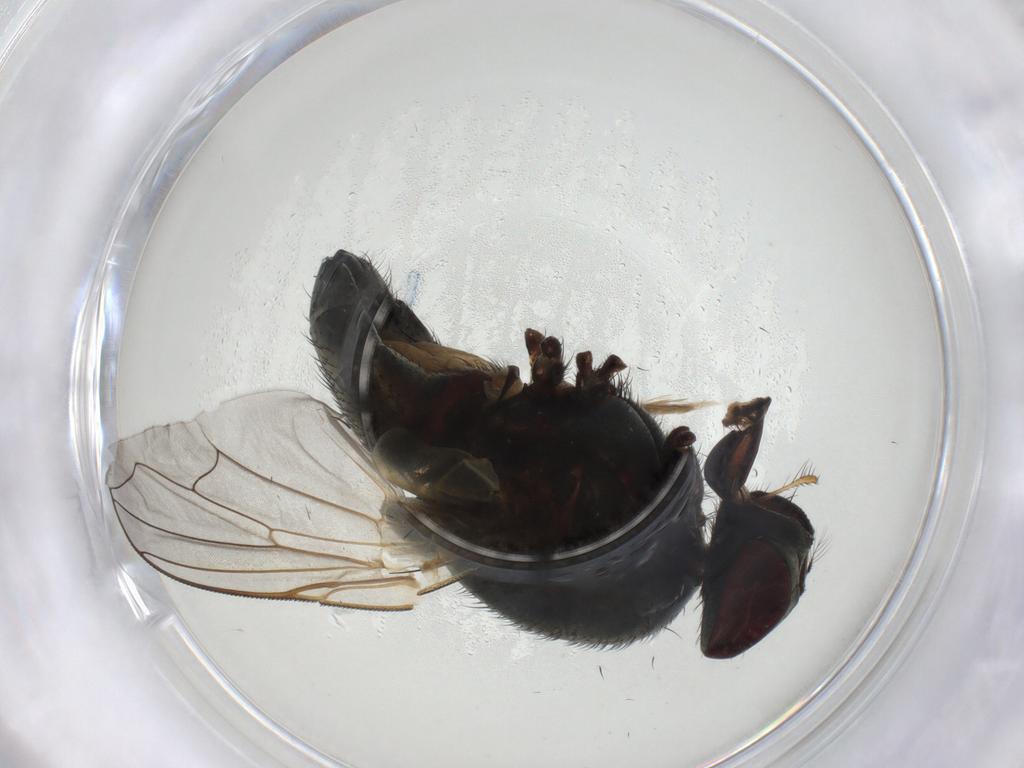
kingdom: Animalia
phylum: Arthropoda
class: Insecta
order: Diptera
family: Muscidae
